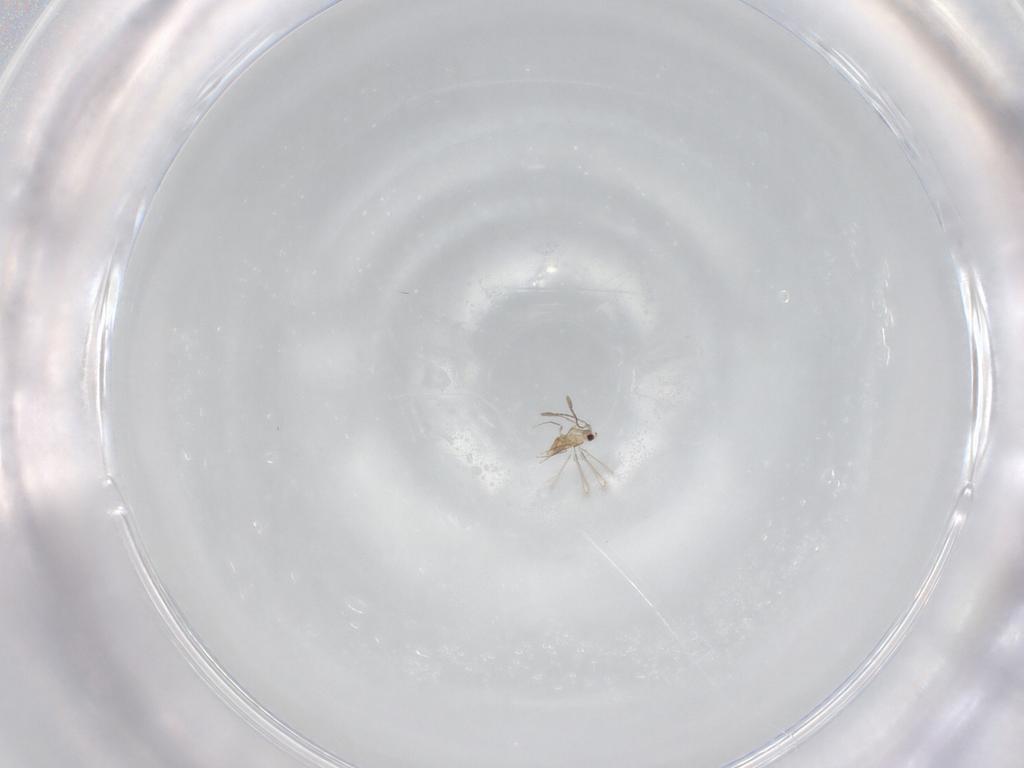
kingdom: Animalia
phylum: Arthropoda
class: Insecta
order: Hymenoptera
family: Mymaridae
